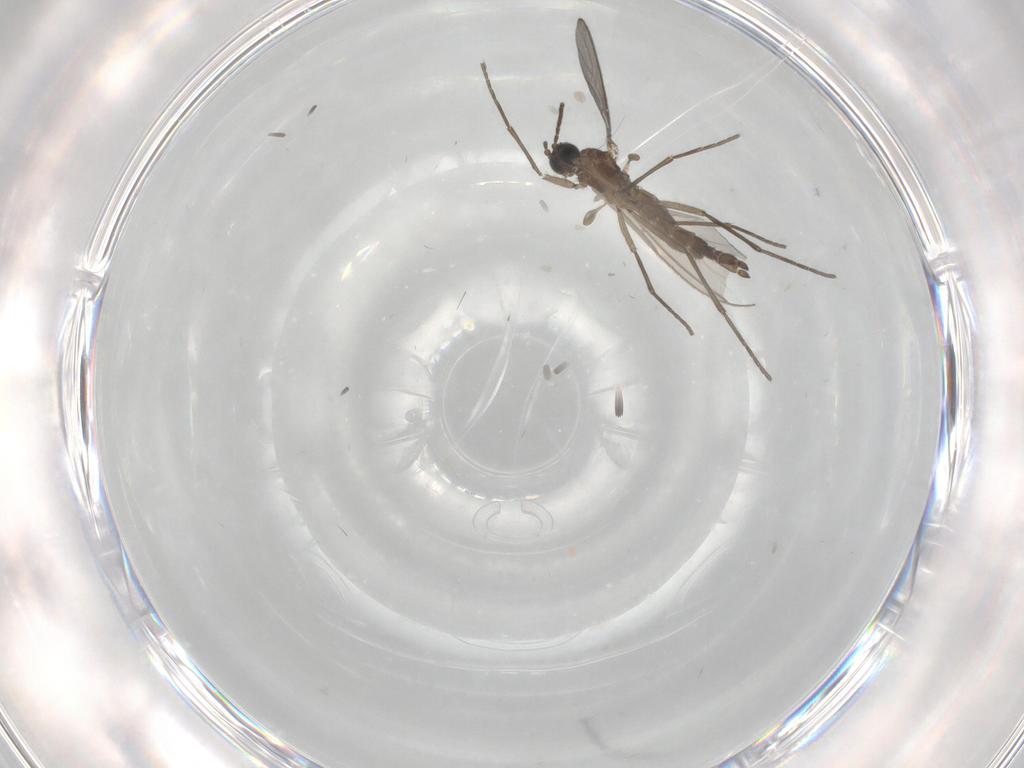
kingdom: Animalia
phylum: Arthropoda
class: Insecta
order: Diptera
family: Sciaridae
